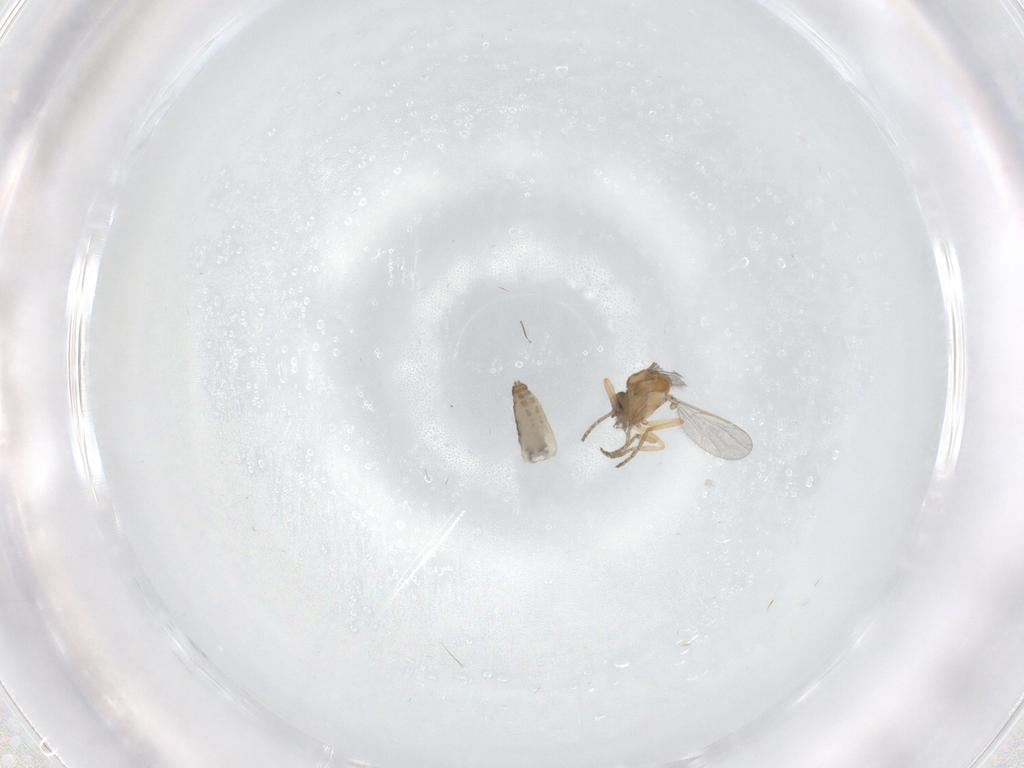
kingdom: Animalia
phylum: Arthropoda
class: Insecta
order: Diptera
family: Ceratopogonidae
